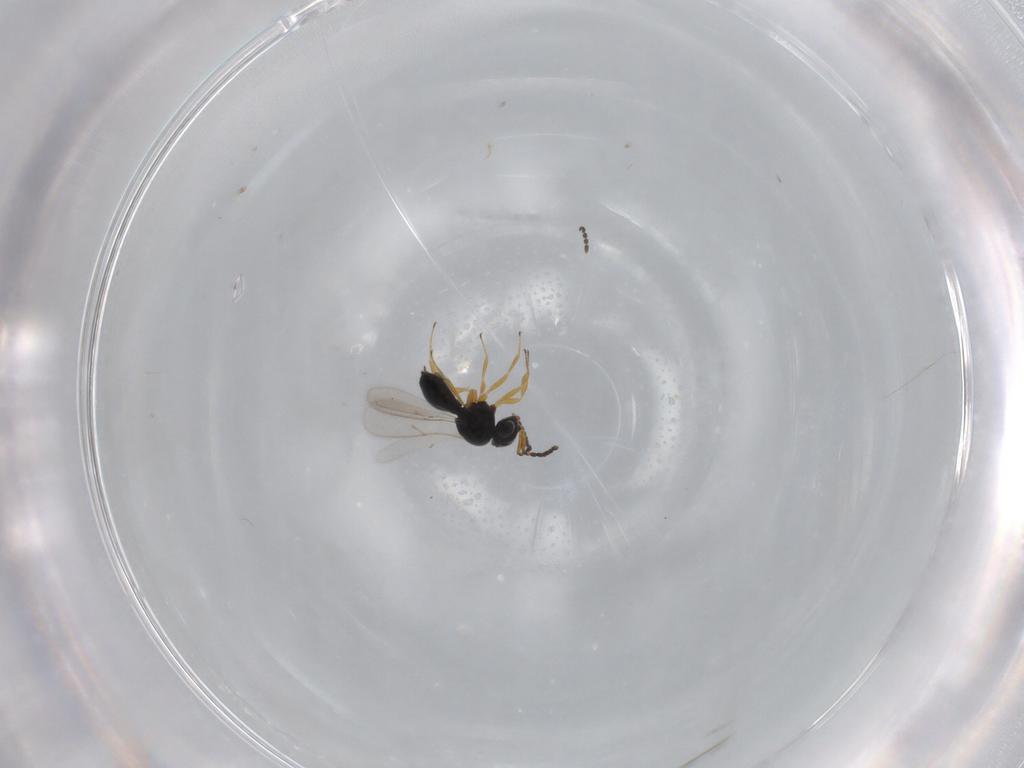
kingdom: Animalia
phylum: Arthropoda
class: Insecta
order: Hymenoptera
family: Scelionidae
